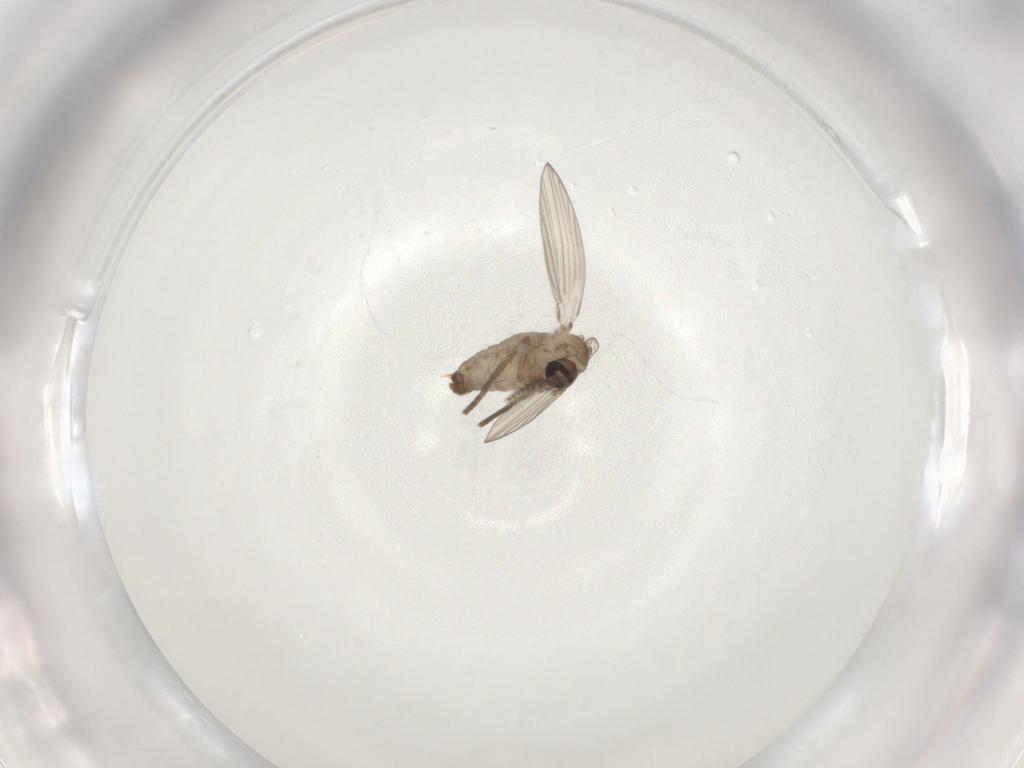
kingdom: Animalia
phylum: Arthropoda
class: Insecta
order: Diptera
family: Psychodidae
